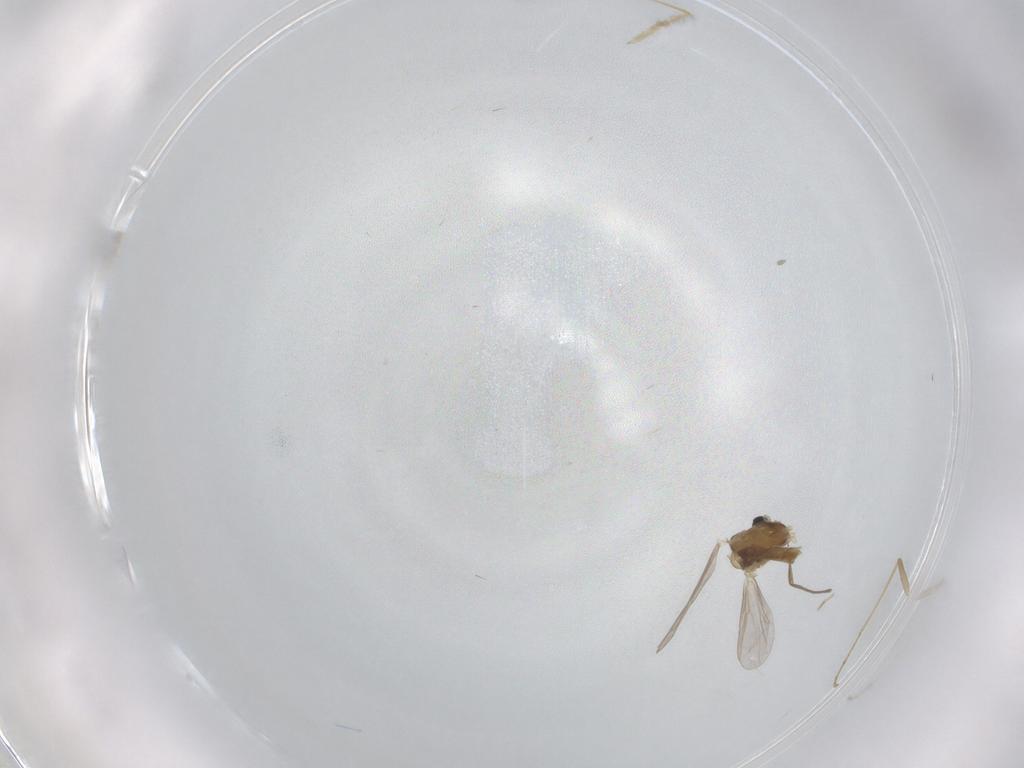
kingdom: Animalia
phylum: Arthropoda
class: Insecta
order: Diptera
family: Psychodidae
